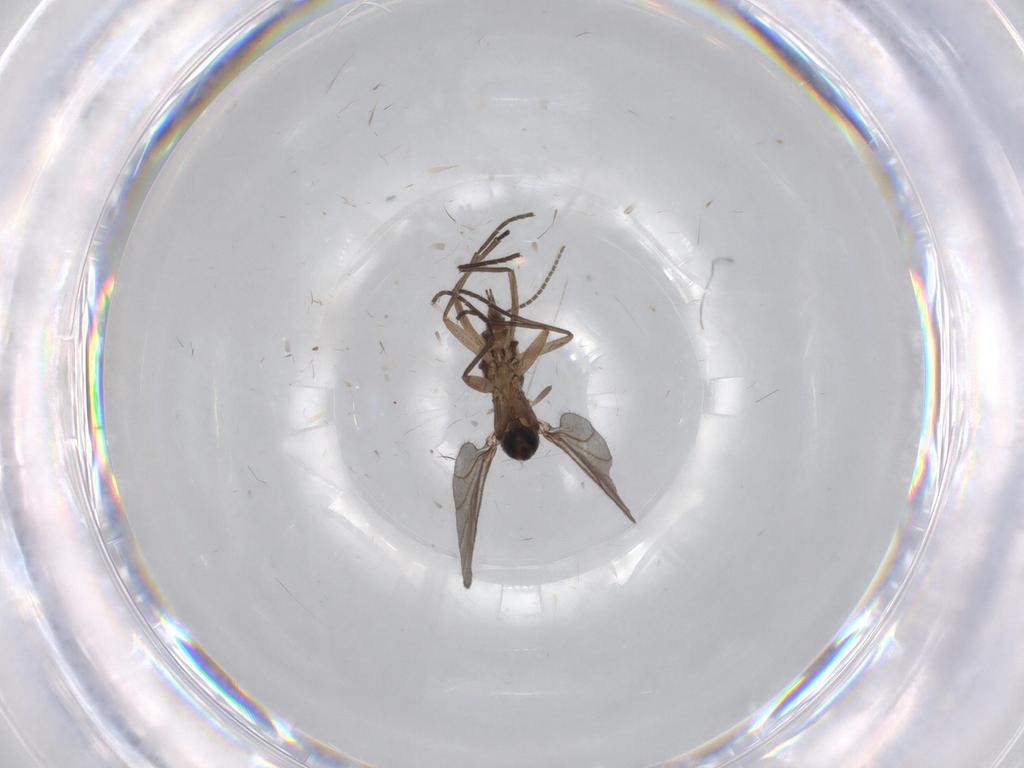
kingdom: Animalia
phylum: Arthropoda
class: Insecta
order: Diptera
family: Sciaridae
